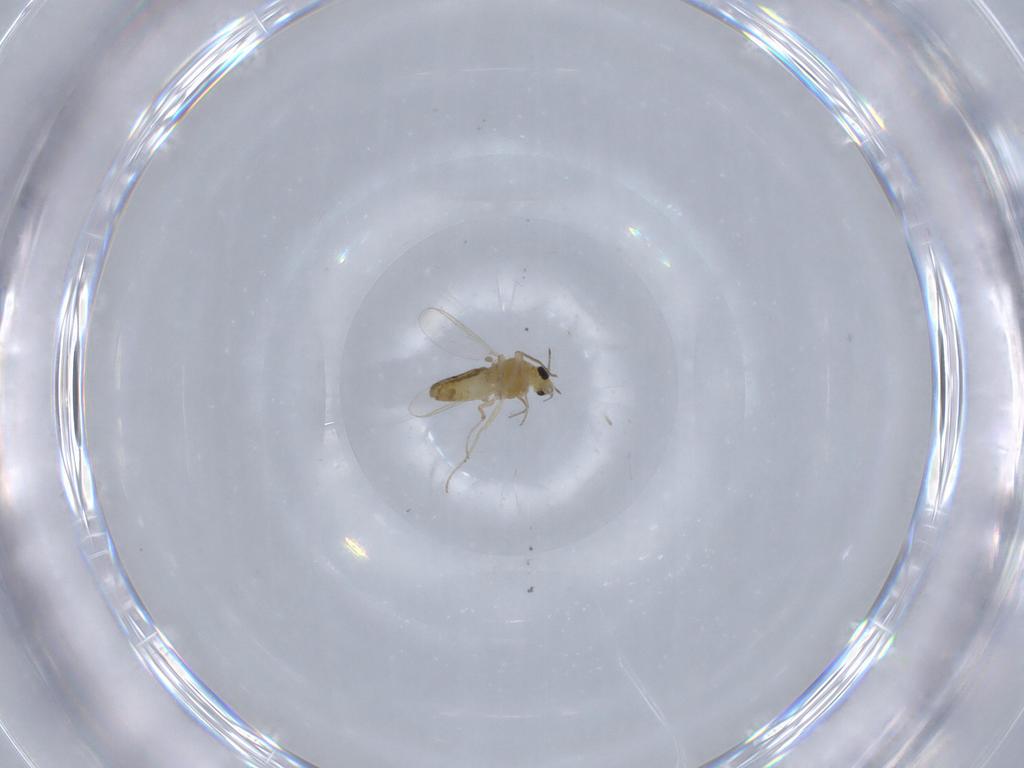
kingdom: Animalia
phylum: Arthropoda
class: Insecta
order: Diptera
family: Chironomidae
